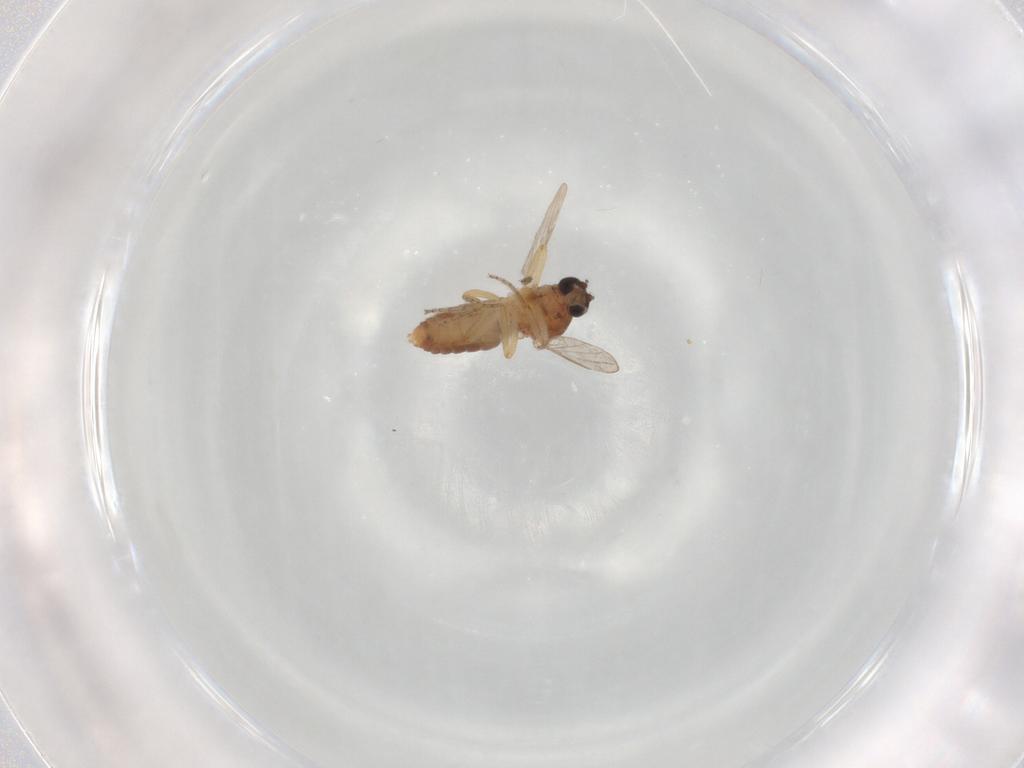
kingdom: Animalia
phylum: Arthropoda
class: Insecta
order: Diptera
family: Ceratopogonidae
